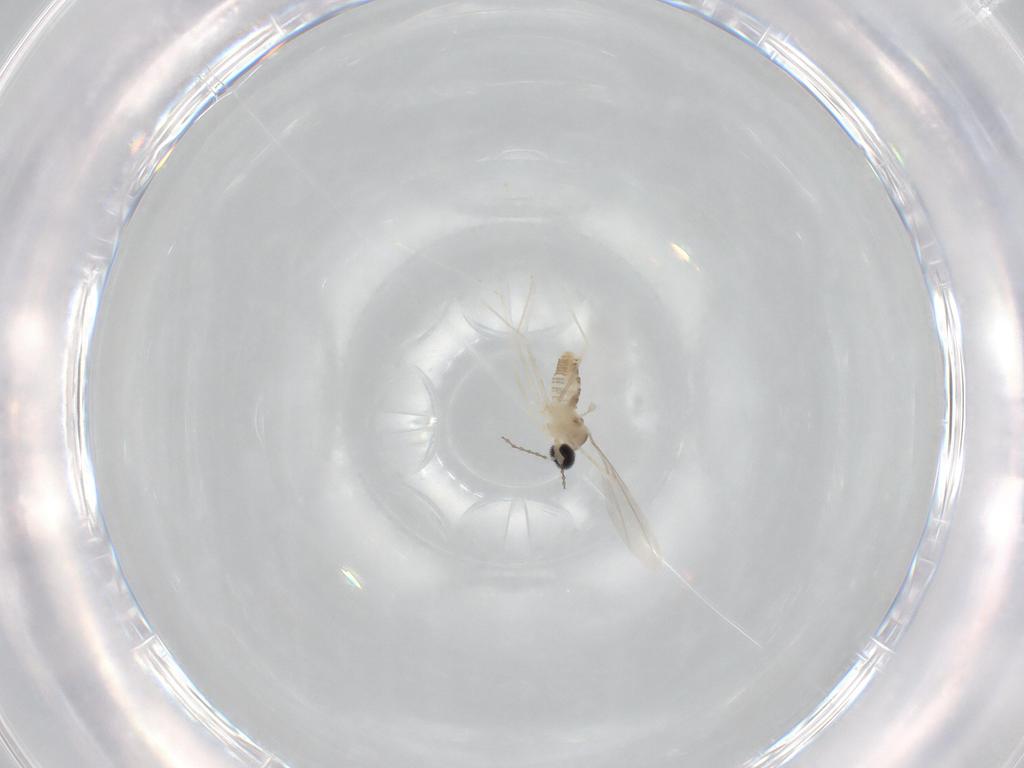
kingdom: Animalia
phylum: Arthropoda
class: Insecta
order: Diptera
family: Cecidomyiidae
